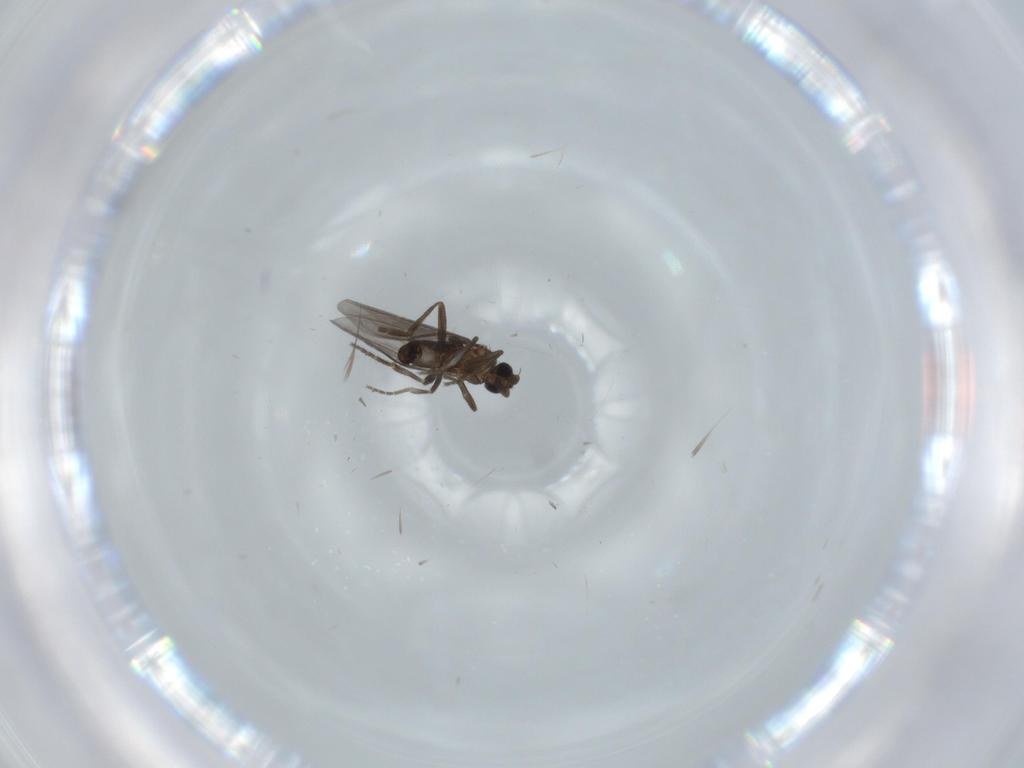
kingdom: Animalia
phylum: Arthropoda
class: Insecta
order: Diptera
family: Phoridae
